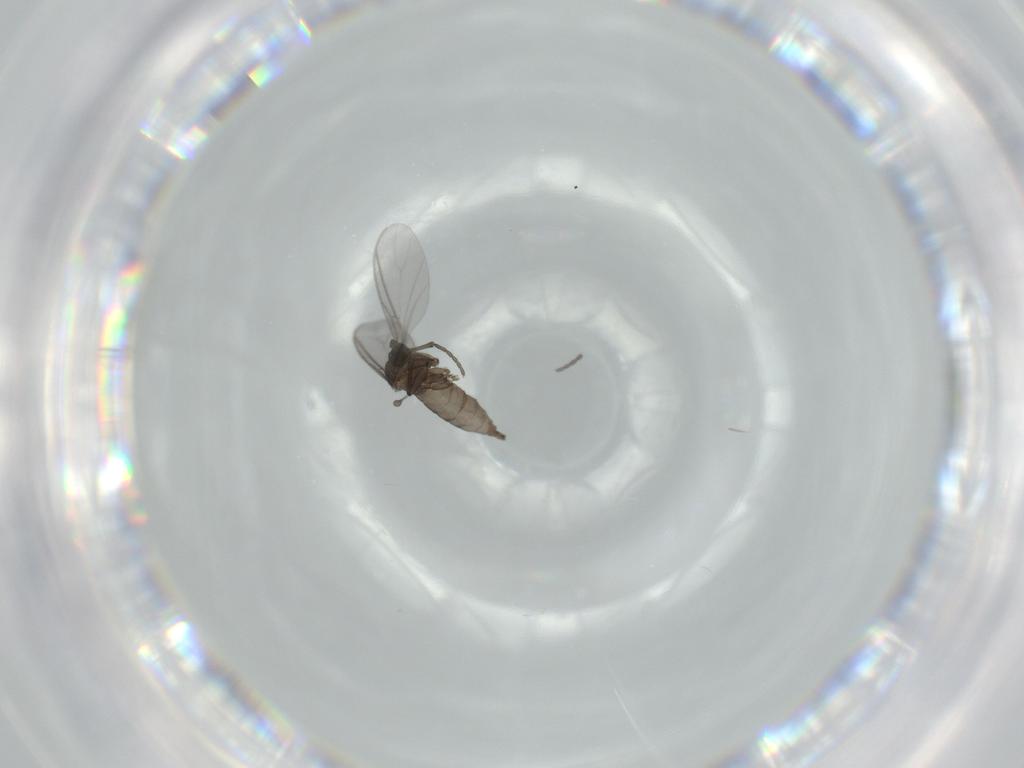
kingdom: Animalia
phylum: Arthropoda
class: Insecta
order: Diptera
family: Sciaridae
